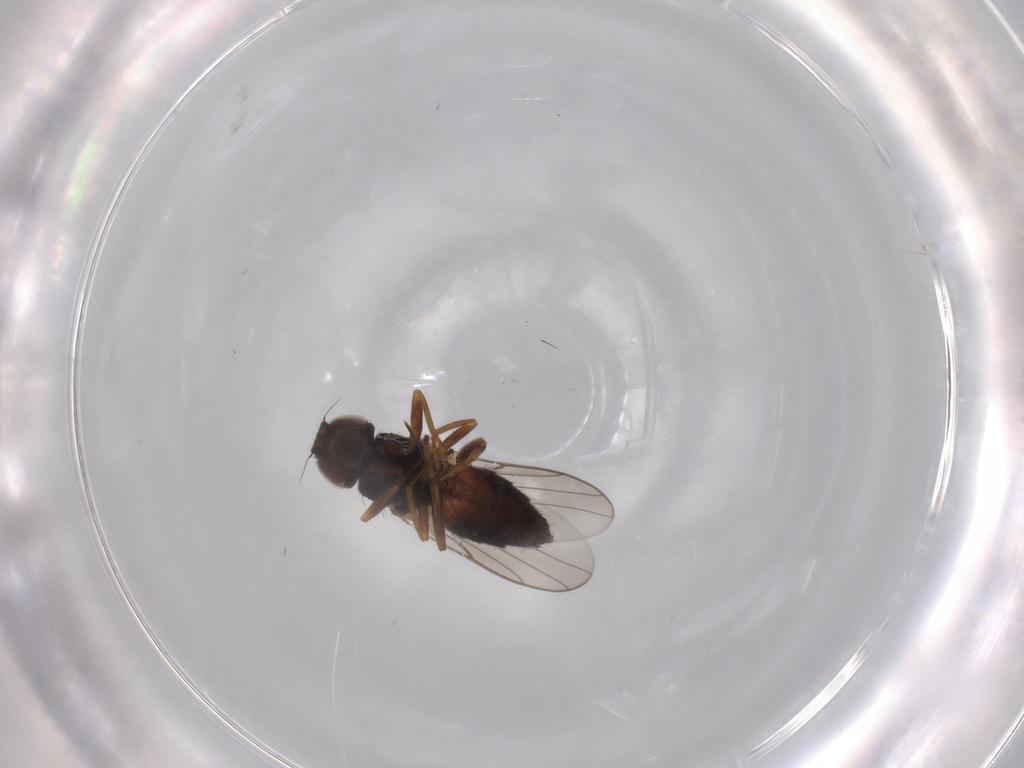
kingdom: Animalia
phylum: Arthropoda
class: Insecta
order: Diptera
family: Chloropidae
